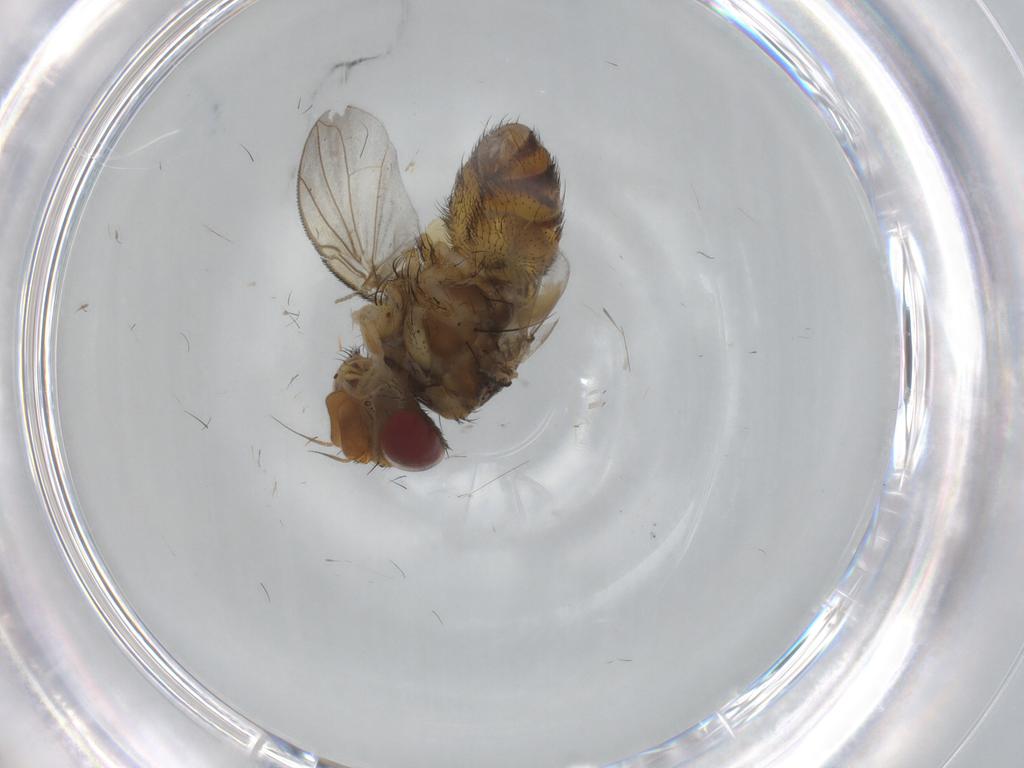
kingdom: Animalia
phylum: Arthropoda
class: Insecta
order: Diptera
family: Tachinidae
